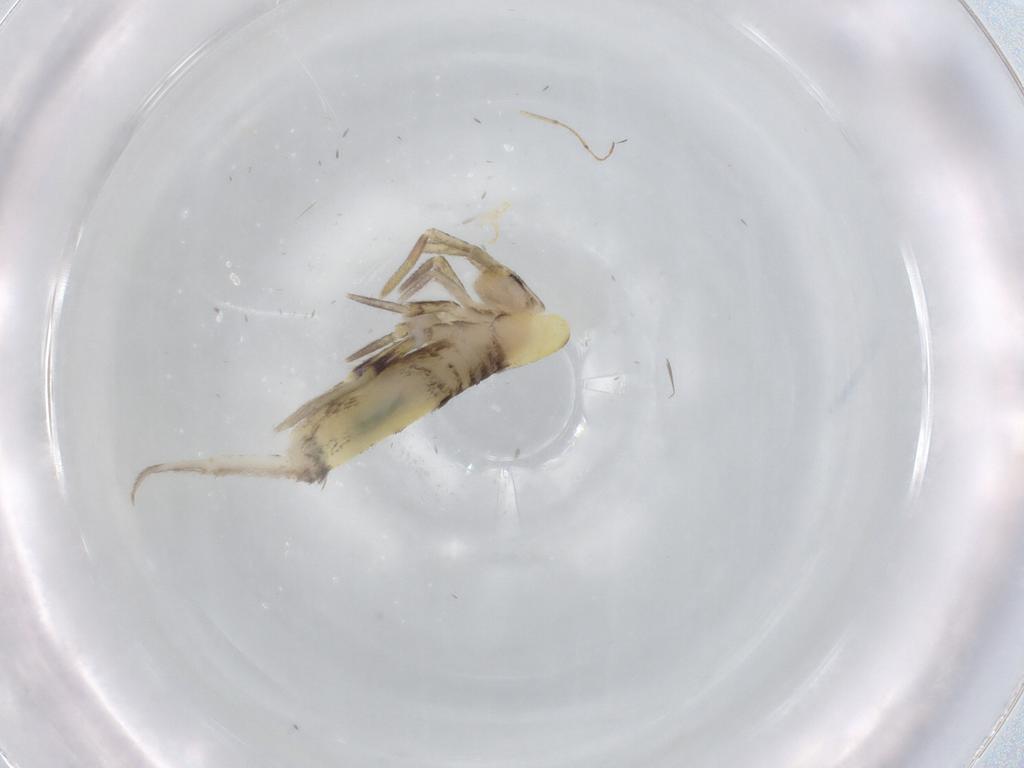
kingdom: Animalia
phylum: Arthropoda
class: Collembola
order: Entomobryomorpha
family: Entomobryidae
